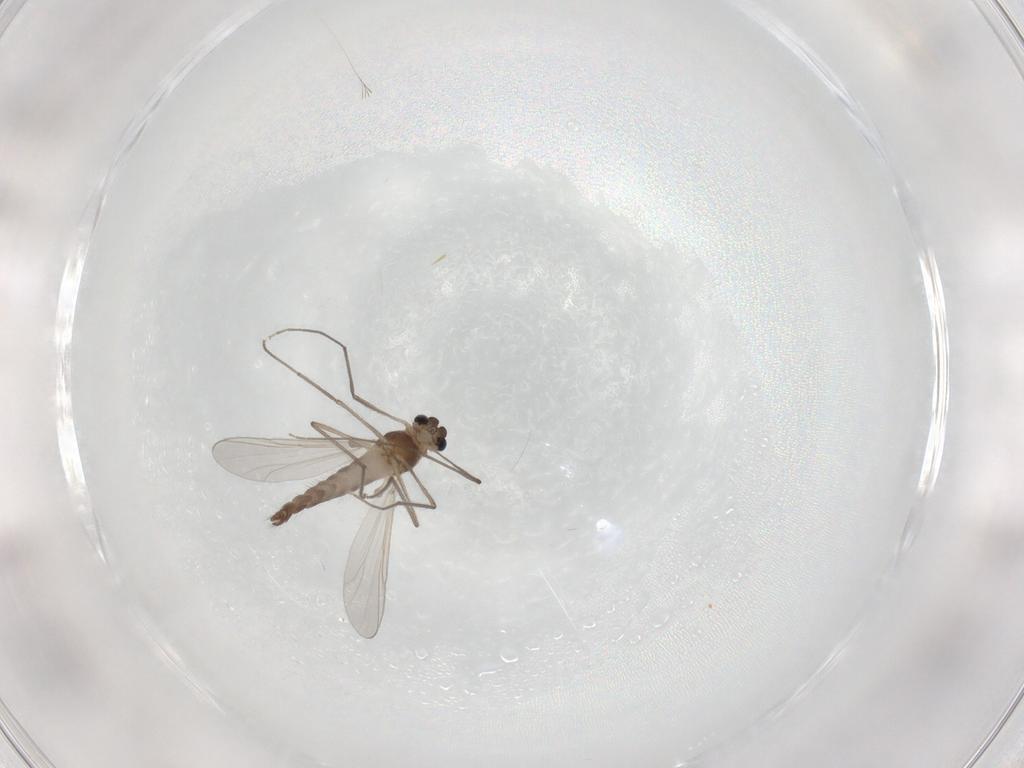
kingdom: Animalia
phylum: Arthropoda
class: Insecta
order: Diptera
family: Chironomidae
